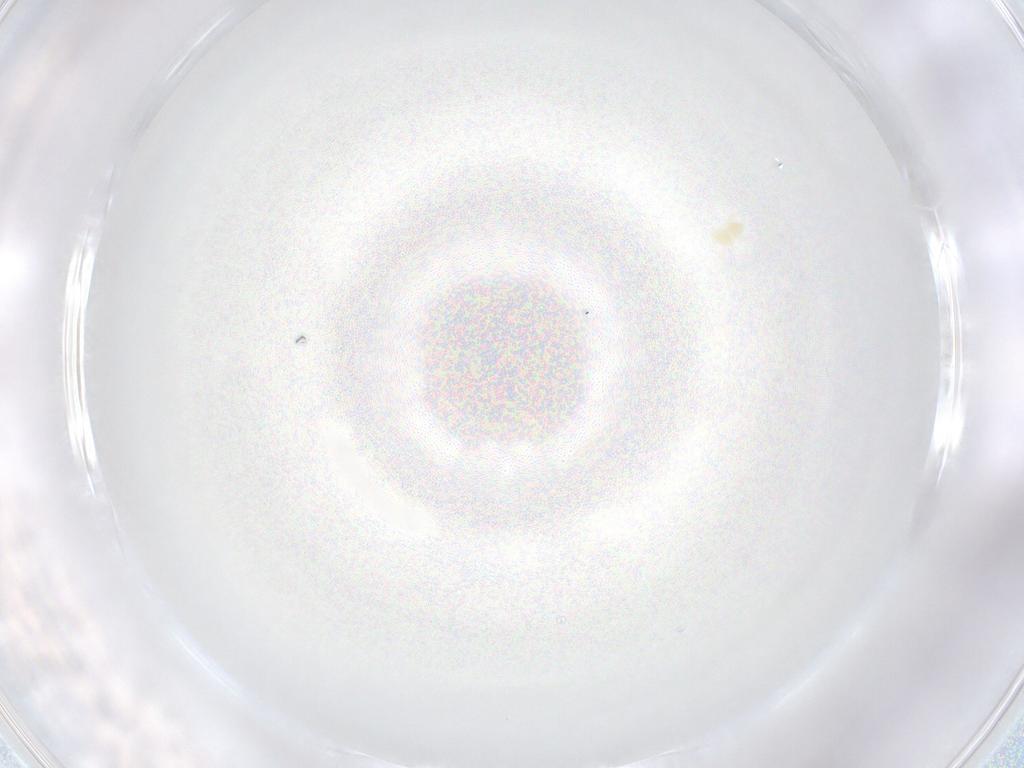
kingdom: Animalia
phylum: Arthropoda
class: Arachnida
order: Trombidiformes
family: Eupodidae
